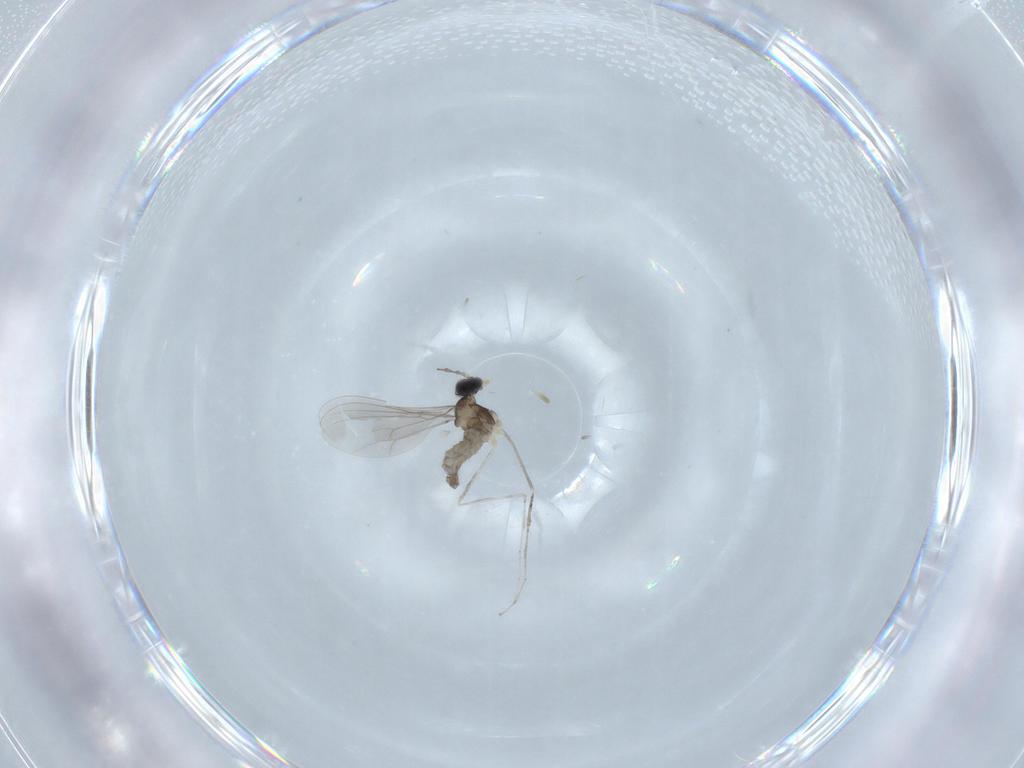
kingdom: Animalia
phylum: Arthropoda
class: Insecta
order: Diptera
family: Cecidomyiidae
